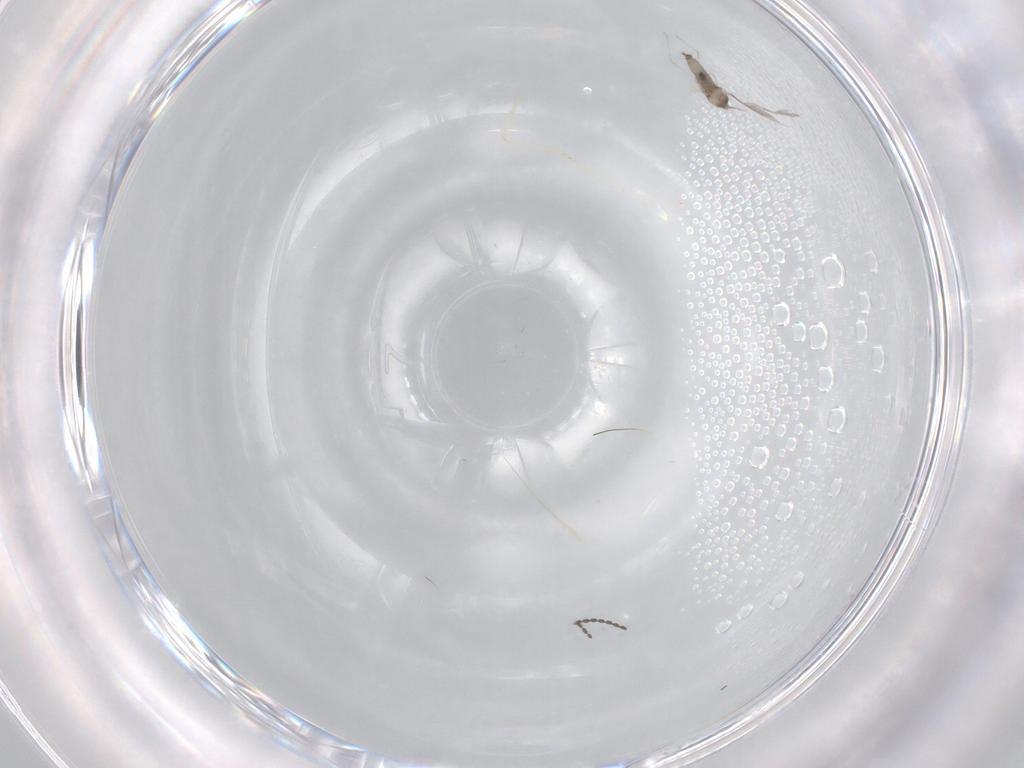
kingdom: Animalia
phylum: Arthropoda
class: Insecta
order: Diptera
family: Cecidomyiidae
